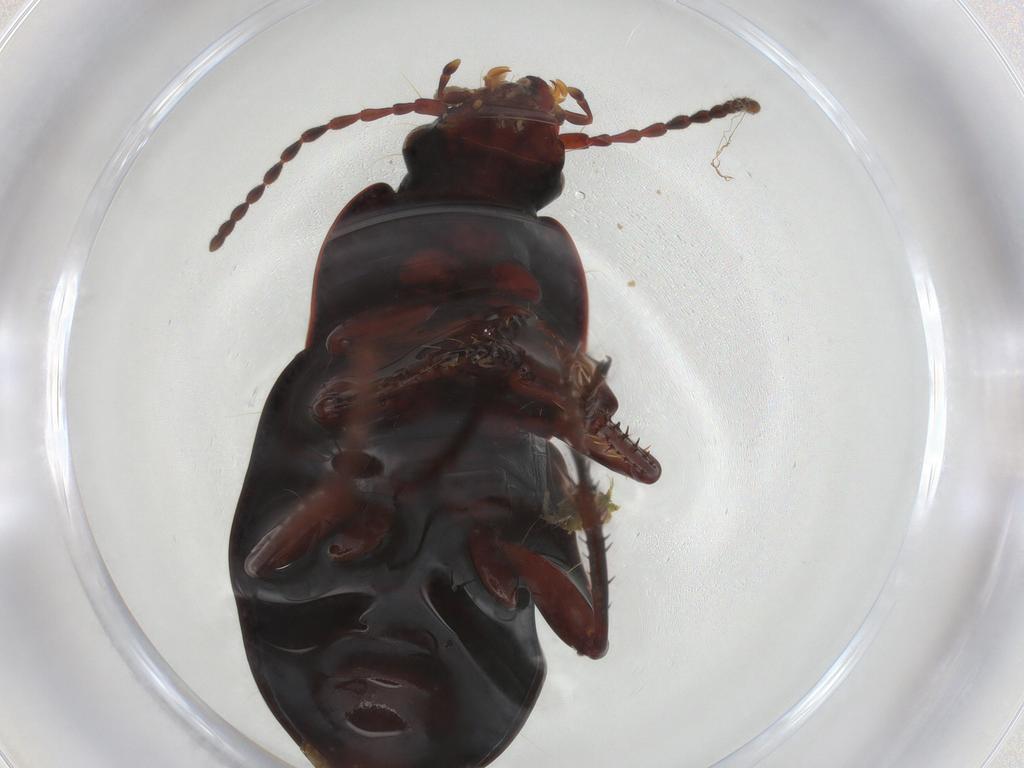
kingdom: Animalia
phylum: Arthropoda
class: Insecta
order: Coleoptera
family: Carabidae
